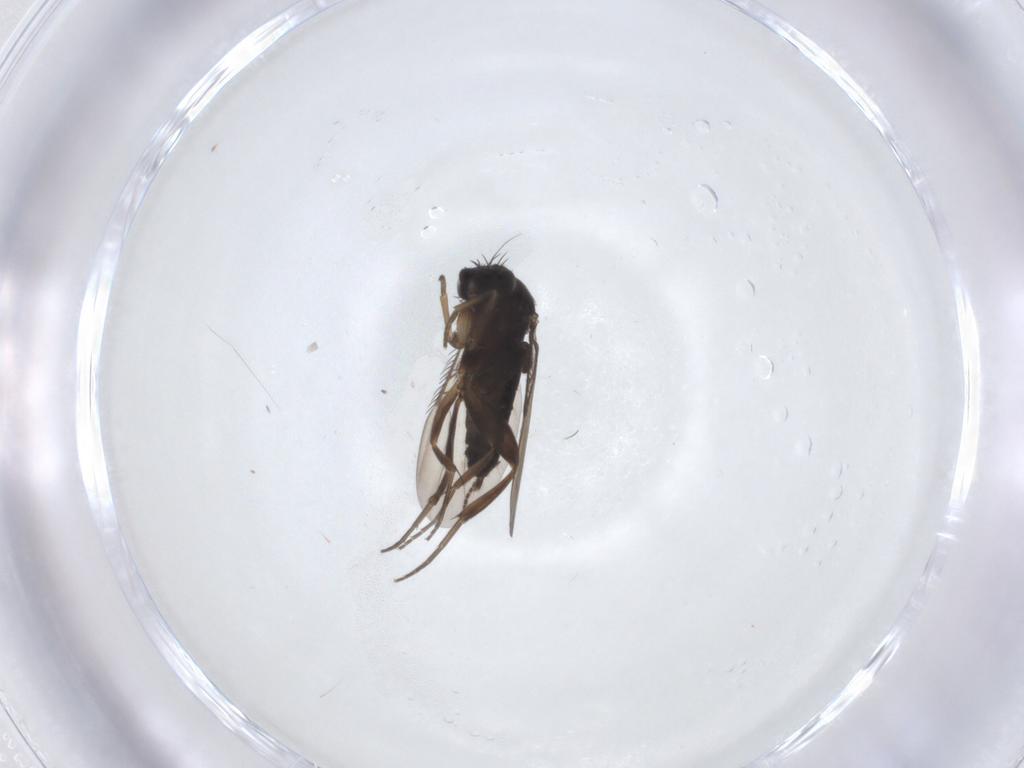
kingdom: Animalia
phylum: Arthropoda
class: Insecta
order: Diptera
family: Phoridae
